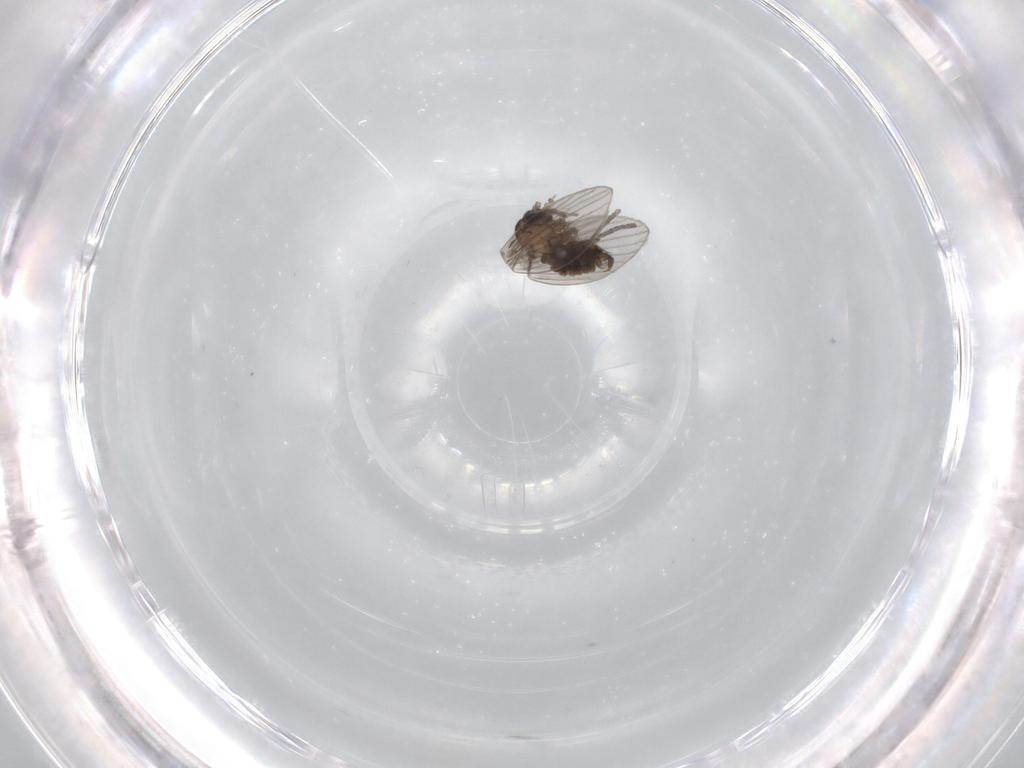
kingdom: Animalia
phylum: Arthropoda
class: Insecta
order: Diptera
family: Psychodidae
